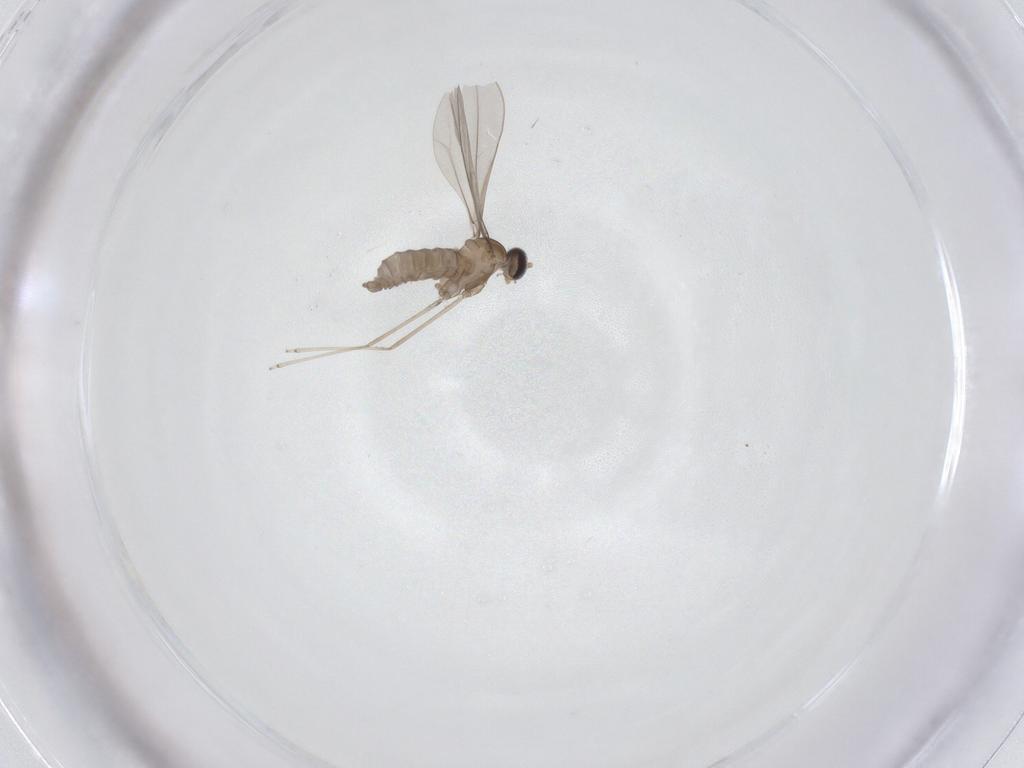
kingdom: Animalia
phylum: Arthropoda
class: Insecta
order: Diptera
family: Cecidomyiidae
